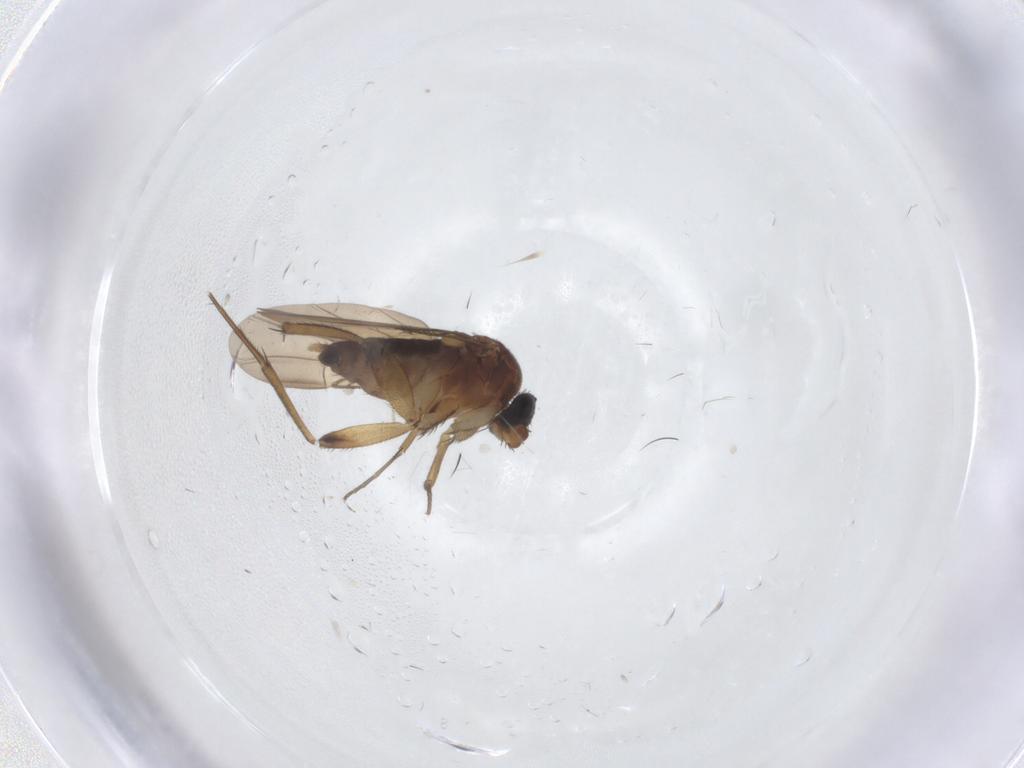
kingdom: Animalia
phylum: Arthropoda
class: Insecta
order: Diptera
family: Phoridae
